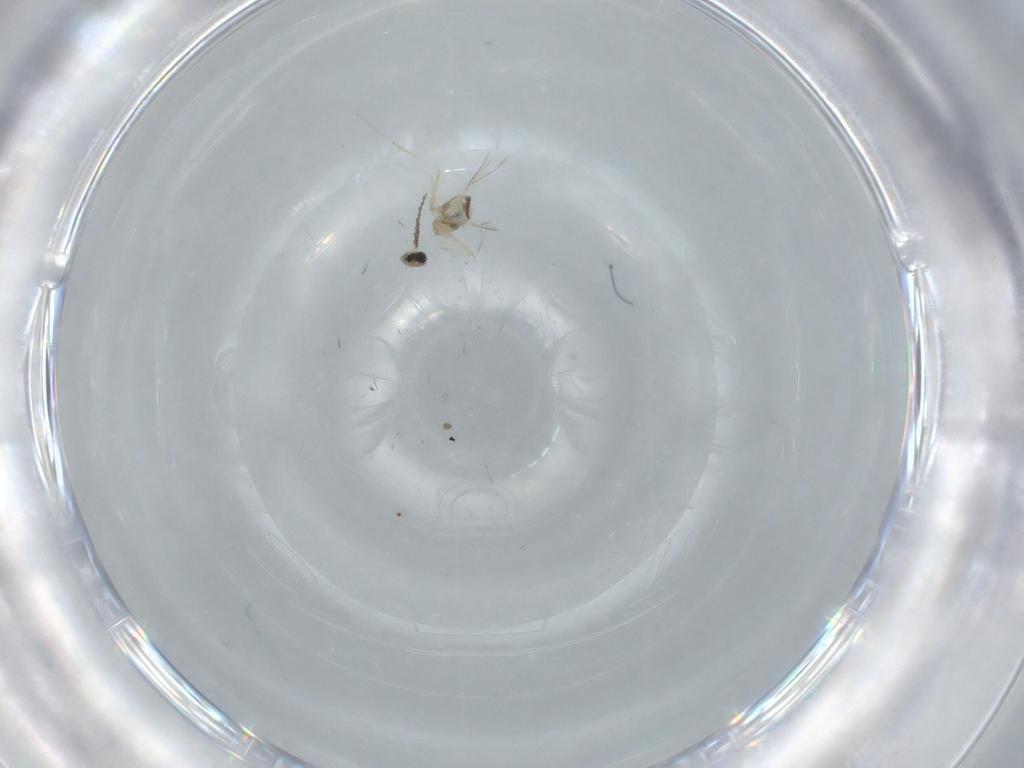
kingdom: Animalia
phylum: Arthropoda
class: Insecta
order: Diptera
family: Cecidomyiidae
